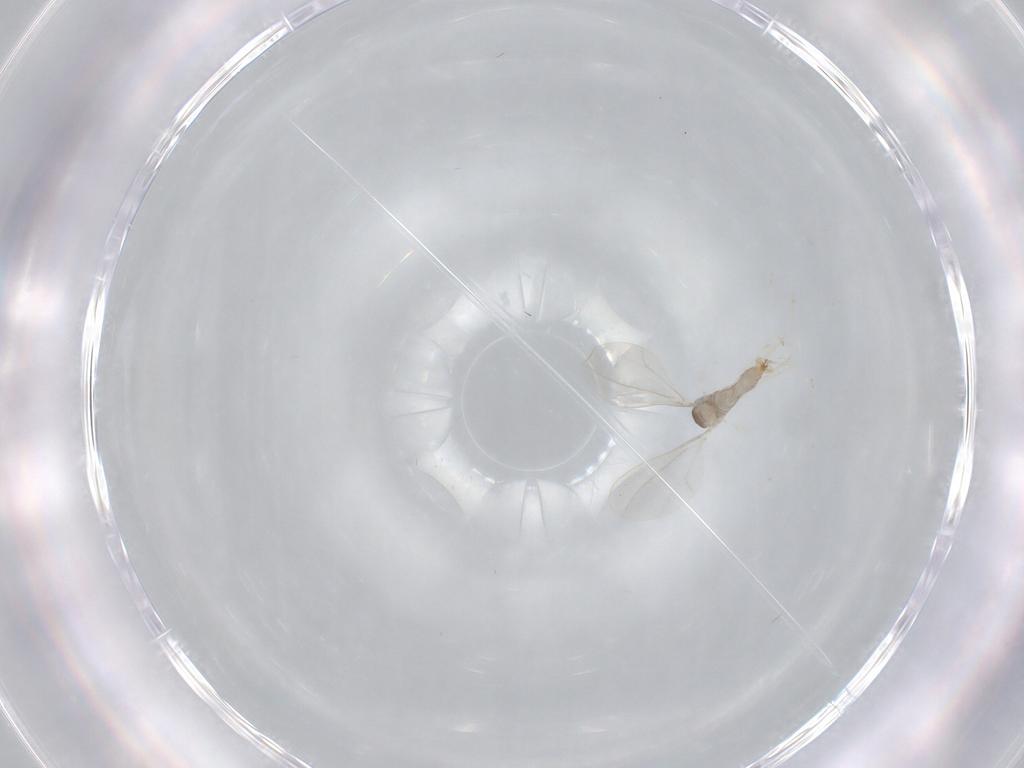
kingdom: Animalia
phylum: Arthropoda
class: Insecta
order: Diptera
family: Cecidomyiidae
